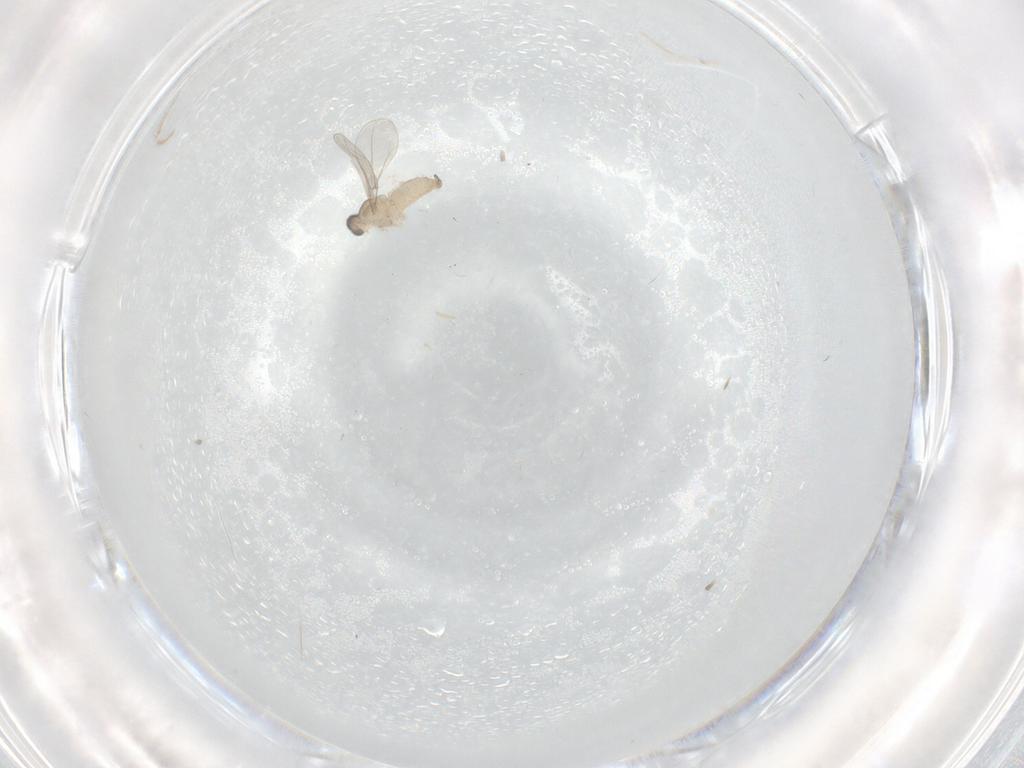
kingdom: Animalia
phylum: Arthropoda
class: Insecta
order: Diptera
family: Cecidomyiidae
